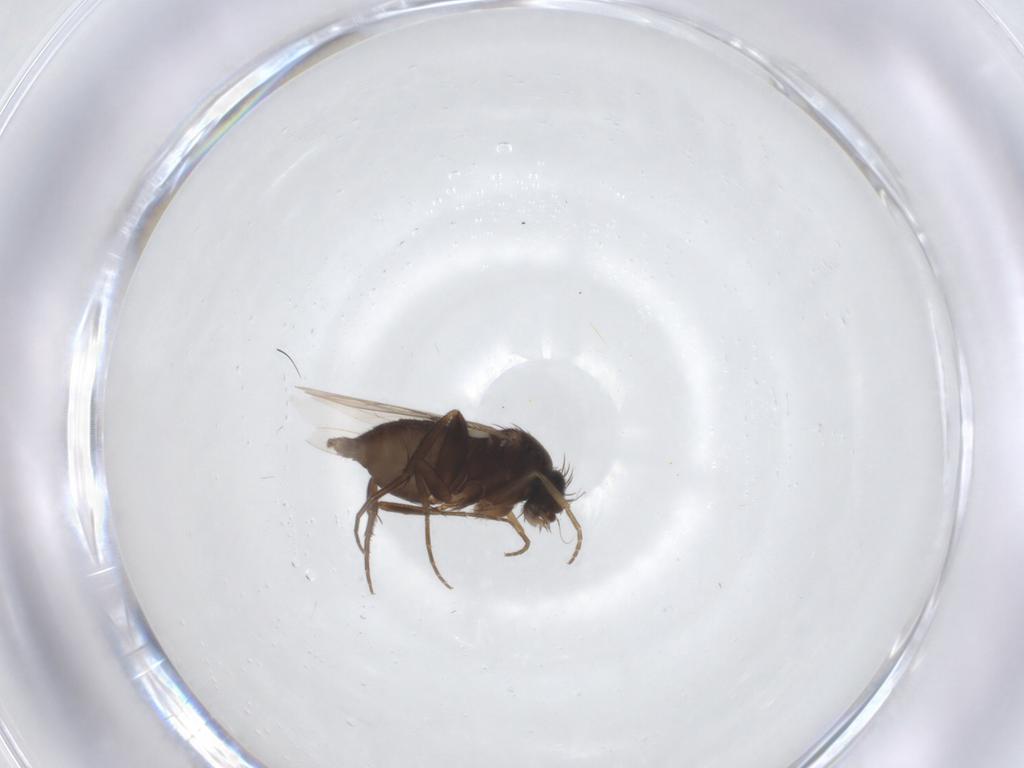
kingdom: Animalia
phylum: Arthropoda
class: Insecta
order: Diptera
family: Phoridae
